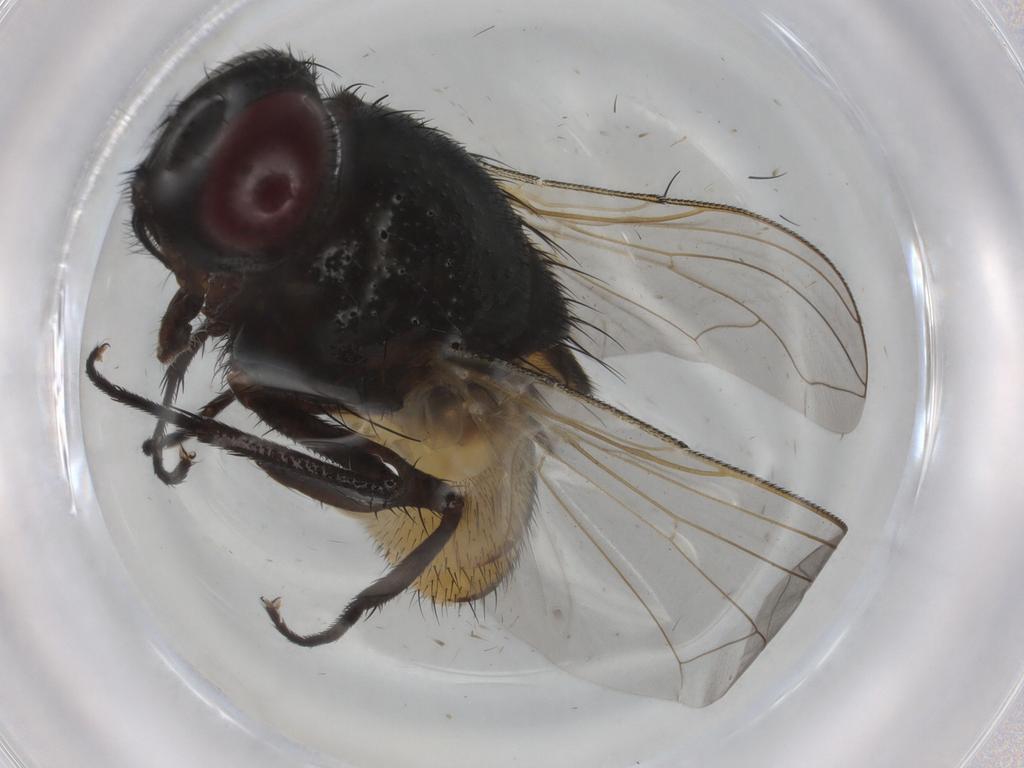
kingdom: Animalia
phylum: Arthropoda
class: Insecta
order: Diptera
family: Muscidae
